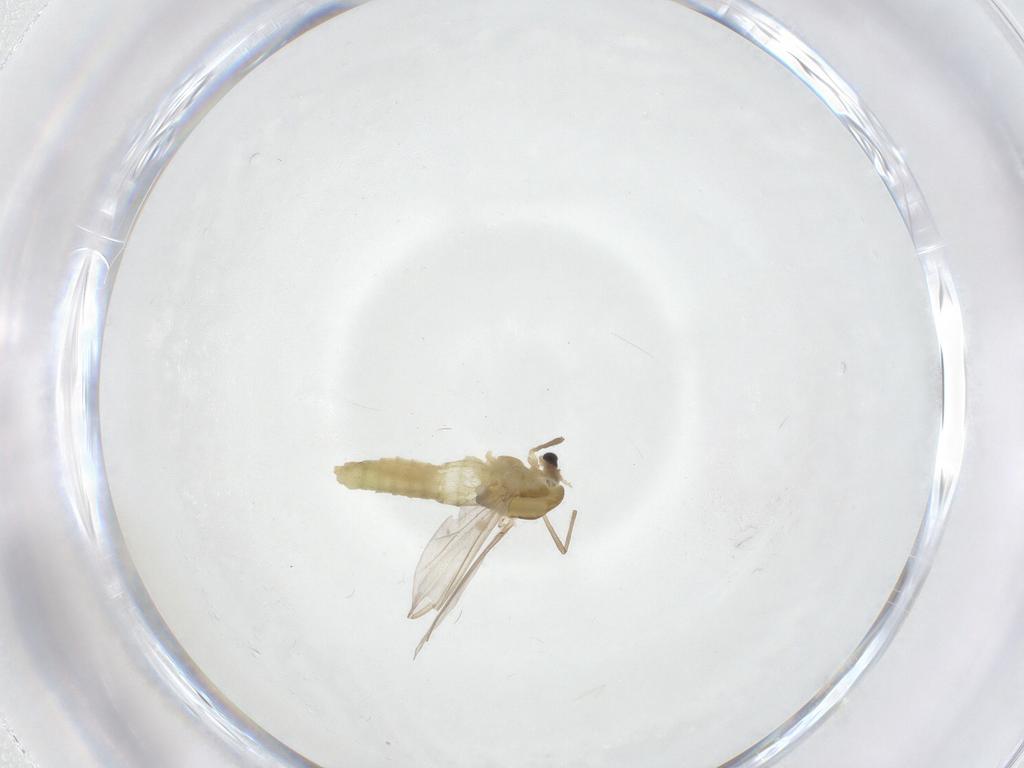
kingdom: Animalia
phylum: Arthropoda
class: Insecta
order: Diptera
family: Chironomidae
